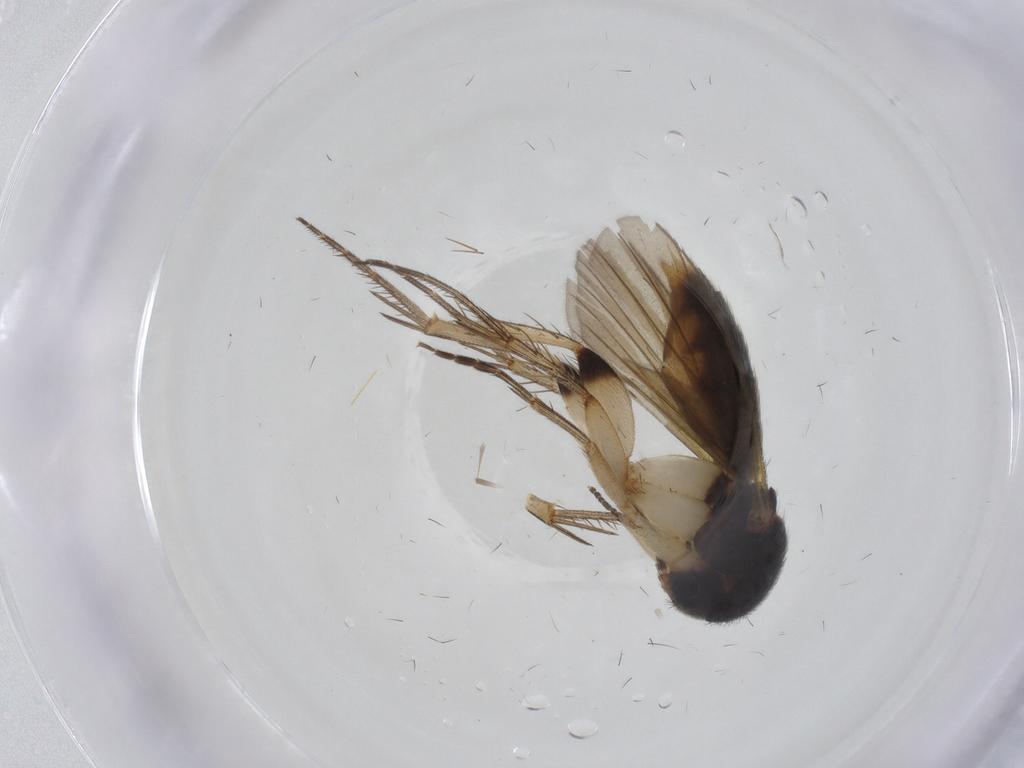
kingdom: Animalia
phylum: Arthropoda
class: Insecta
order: Diptera
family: Mycetophilidae
